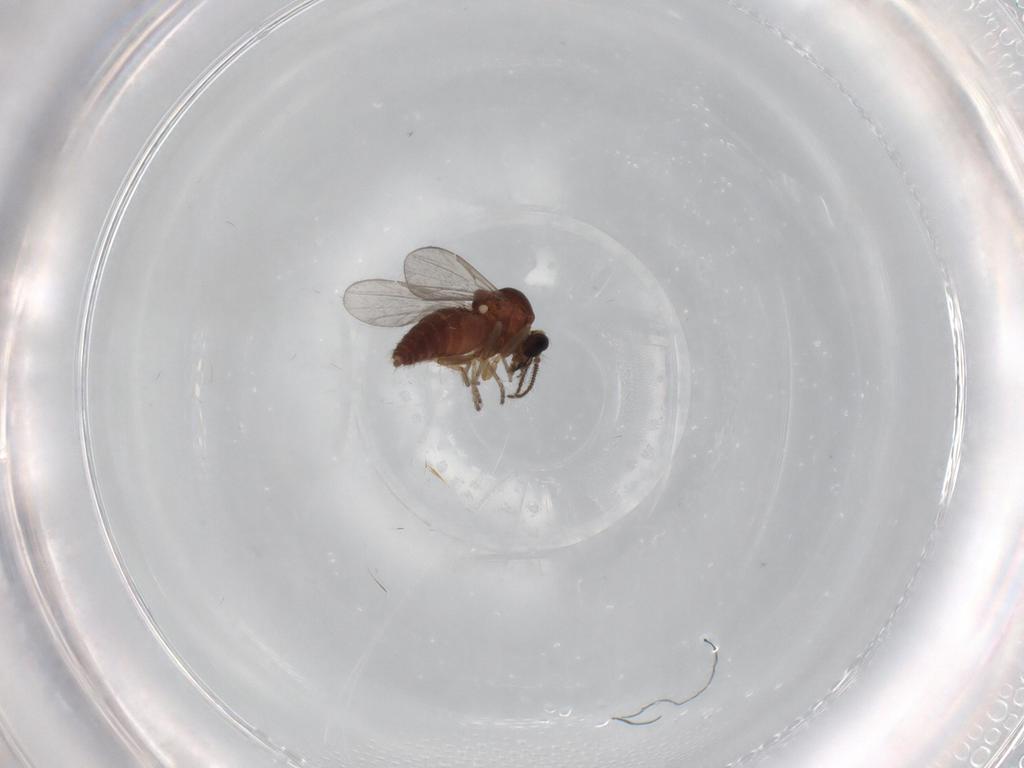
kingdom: Animalia
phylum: Arthropoda
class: Insecta
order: Diptera
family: Ceratopogonidae
